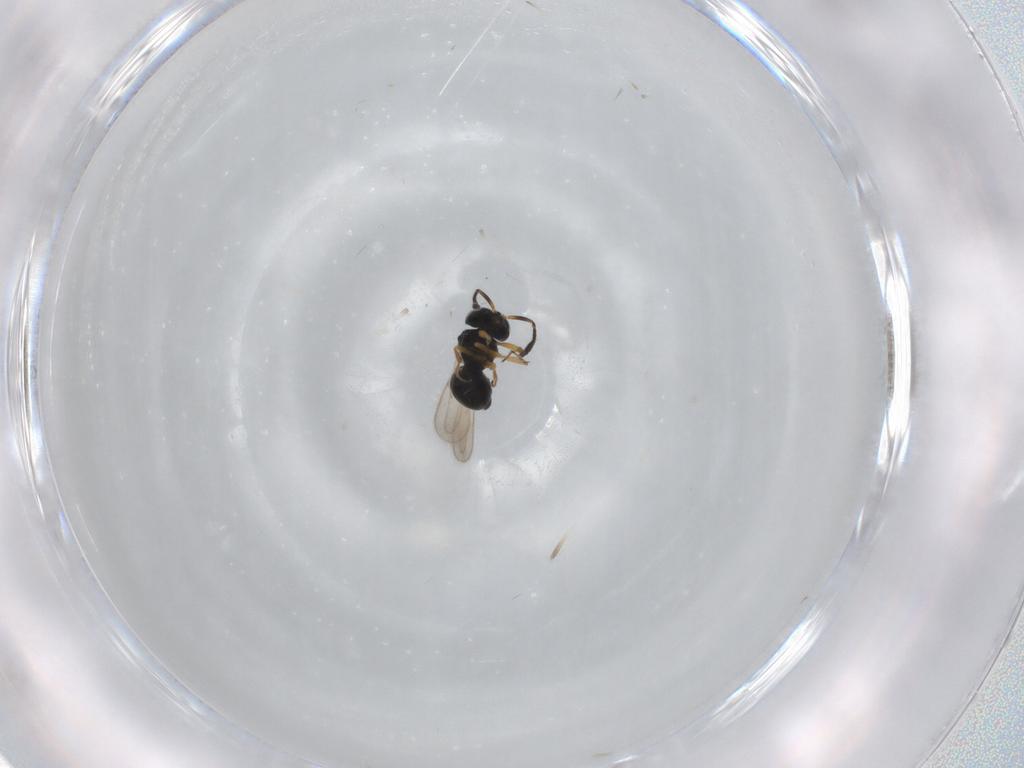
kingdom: Animalia
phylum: Arthropoda
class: Insecta
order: Hymenoptera
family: Scelionidae
